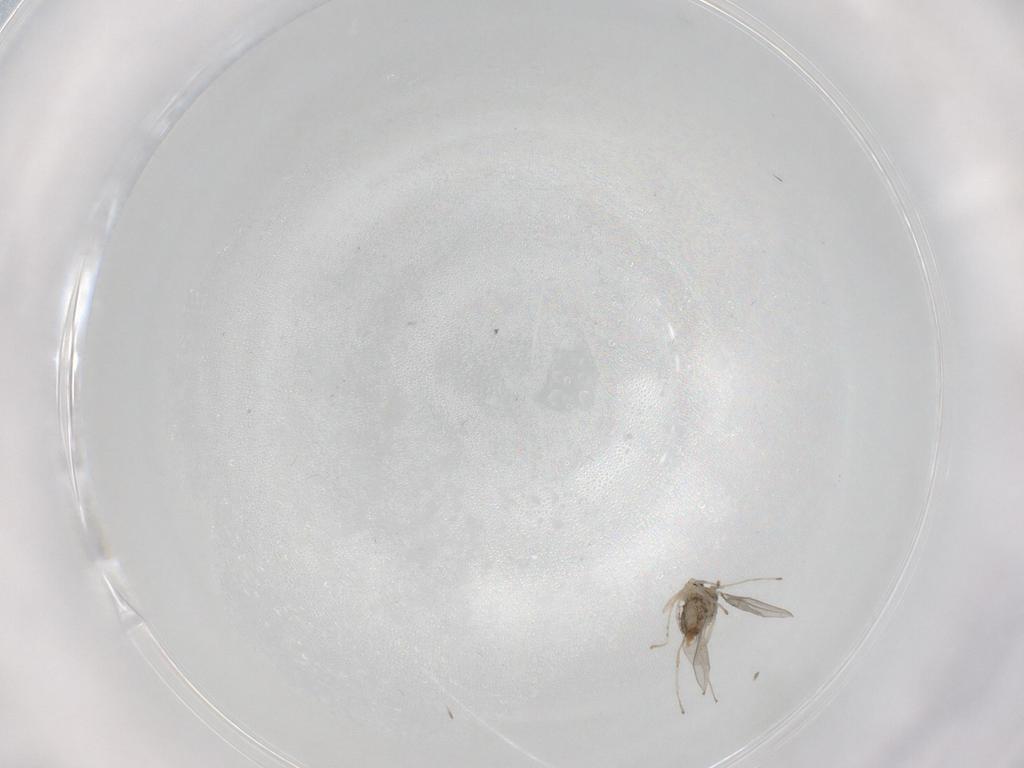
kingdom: Animalia
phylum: Arthropoda
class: Insecta
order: Diptera
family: Cecidomyiidae
